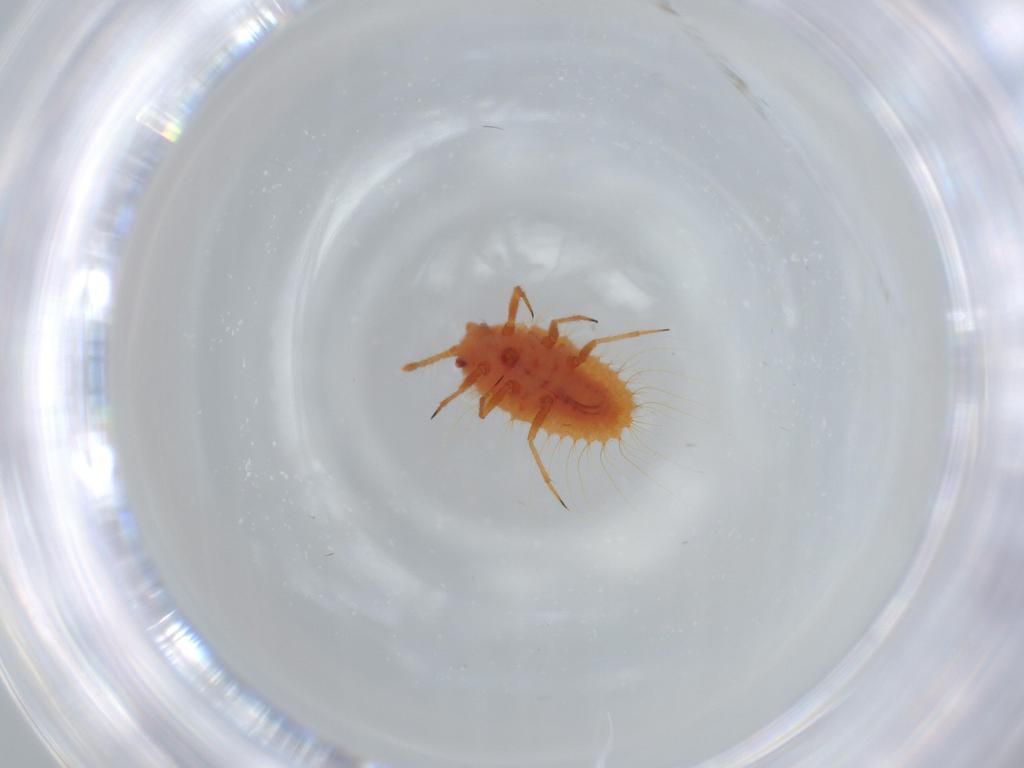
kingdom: Animalia
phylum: Arthropoda
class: Insecta
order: Hemiptera
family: Cicadellidae
